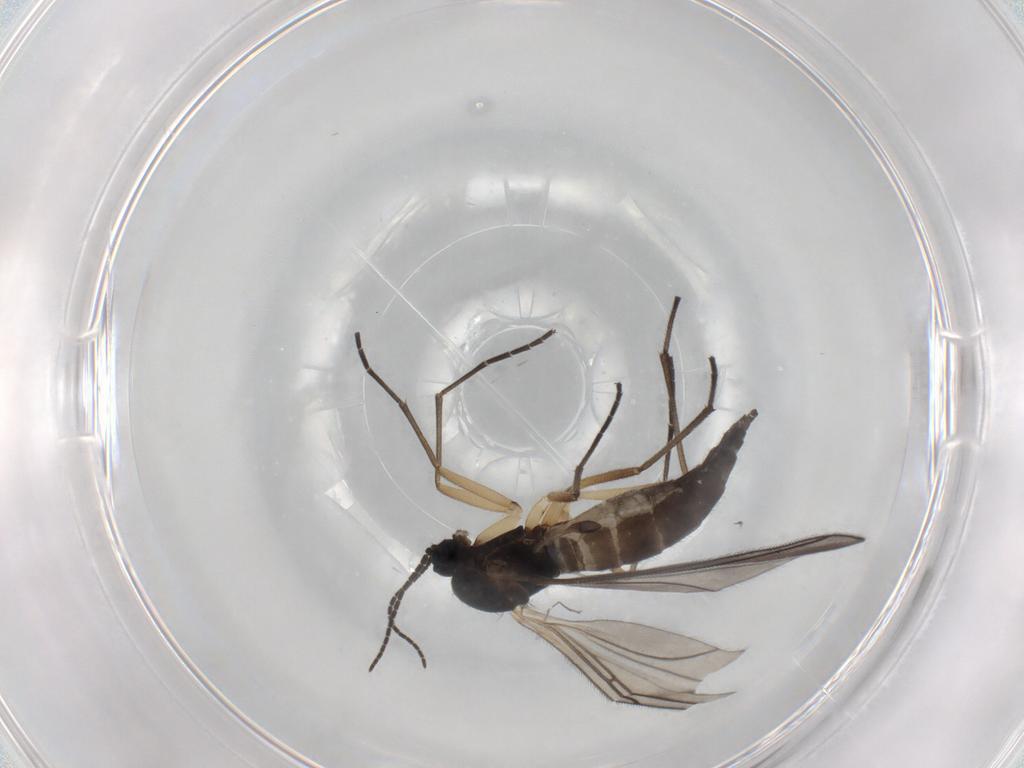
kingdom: Animalia
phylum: Arthropoda
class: Insecta
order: Diptera
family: Sciaridae
